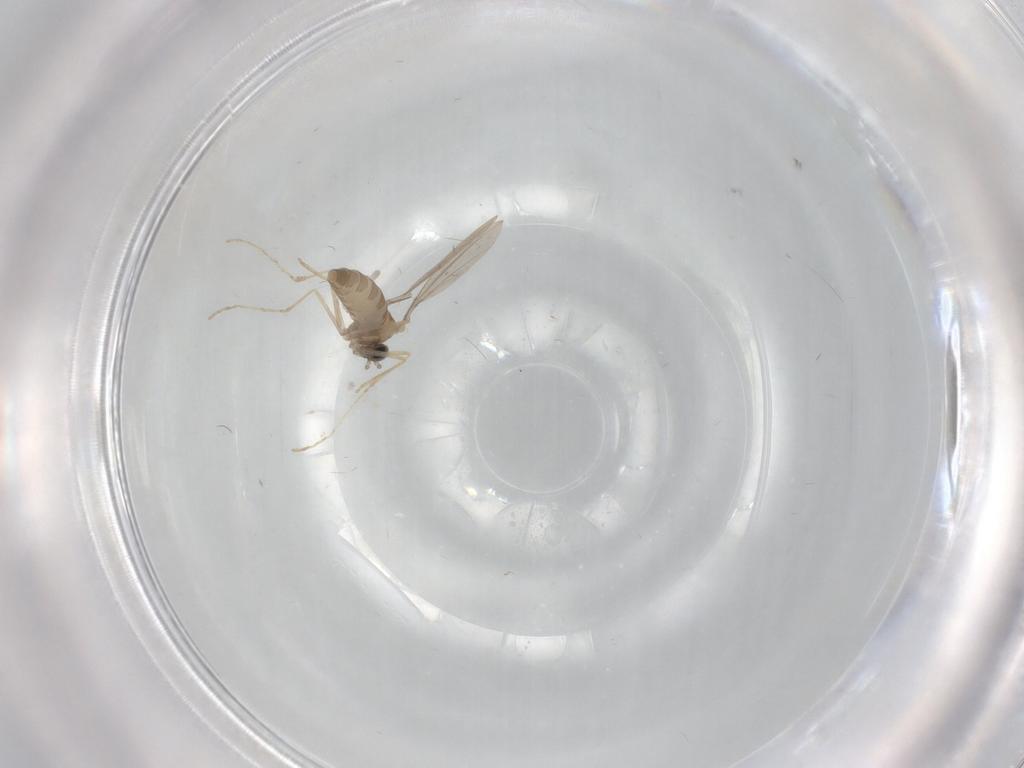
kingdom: Animalia
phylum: Arthropoda
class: Insecta
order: Diptera
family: Cecidomyiidae
